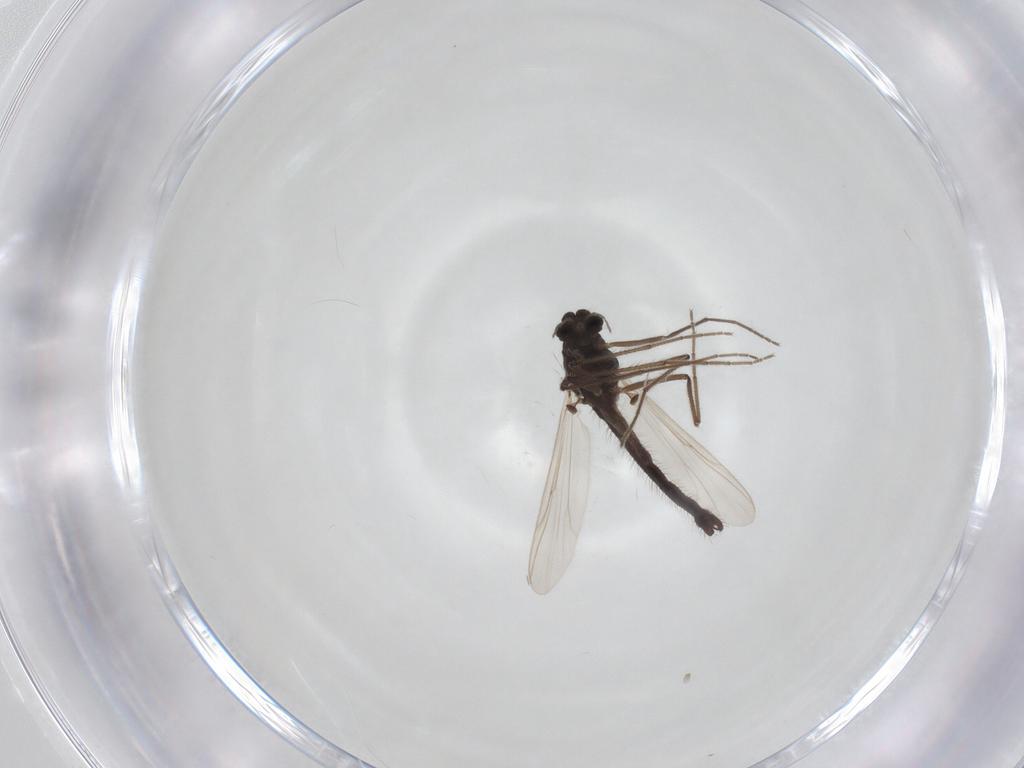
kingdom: Animalia
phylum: Arthropoda
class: Insecta
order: Diptera
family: Chironomidae
